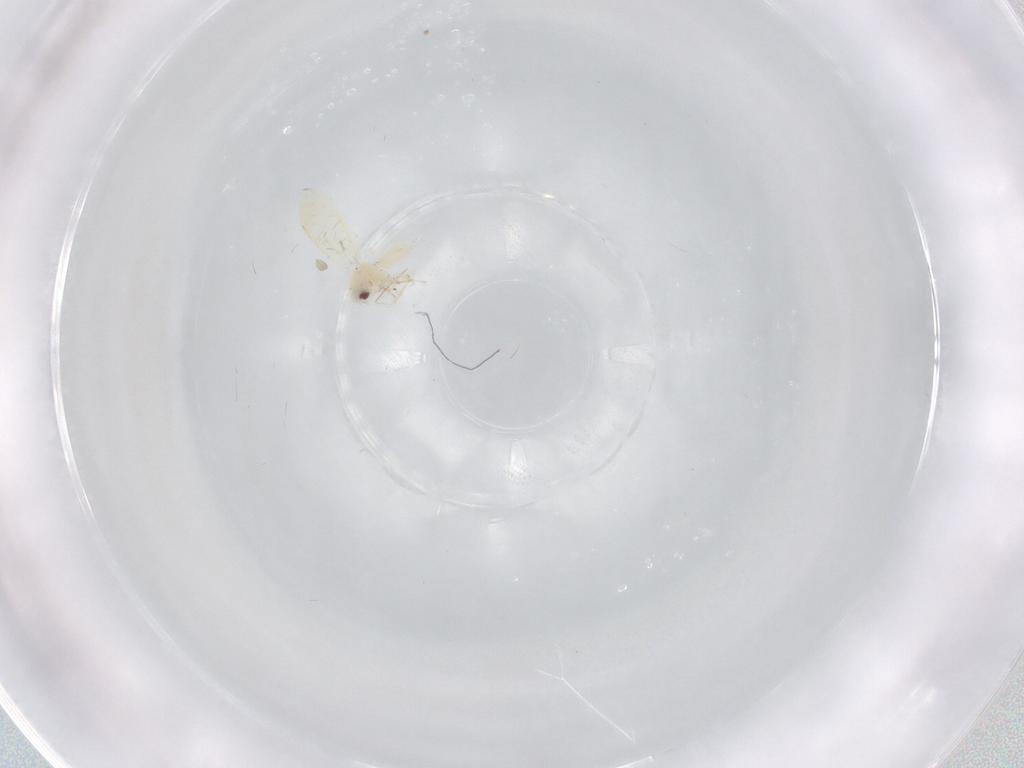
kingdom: Animalia
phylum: Arthropoda
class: Insecta
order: Hemiptera
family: Aleyrodidae
